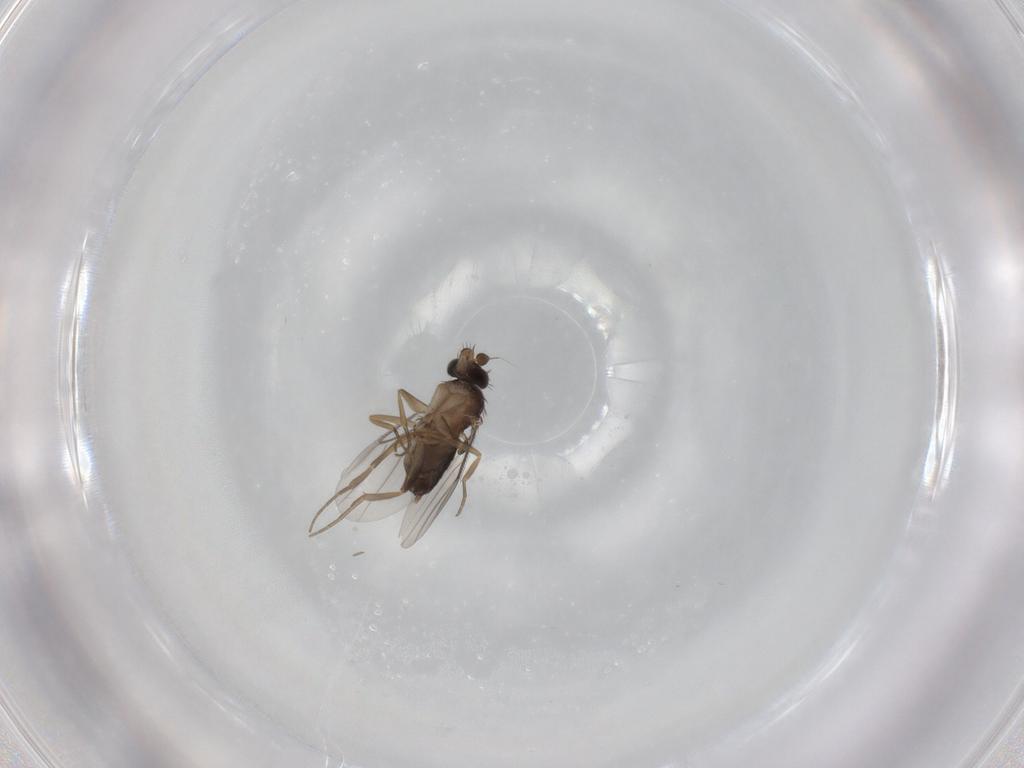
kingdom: Animalia
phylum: Arthropoda
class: Insecta
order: Diptera
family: Phoridae
